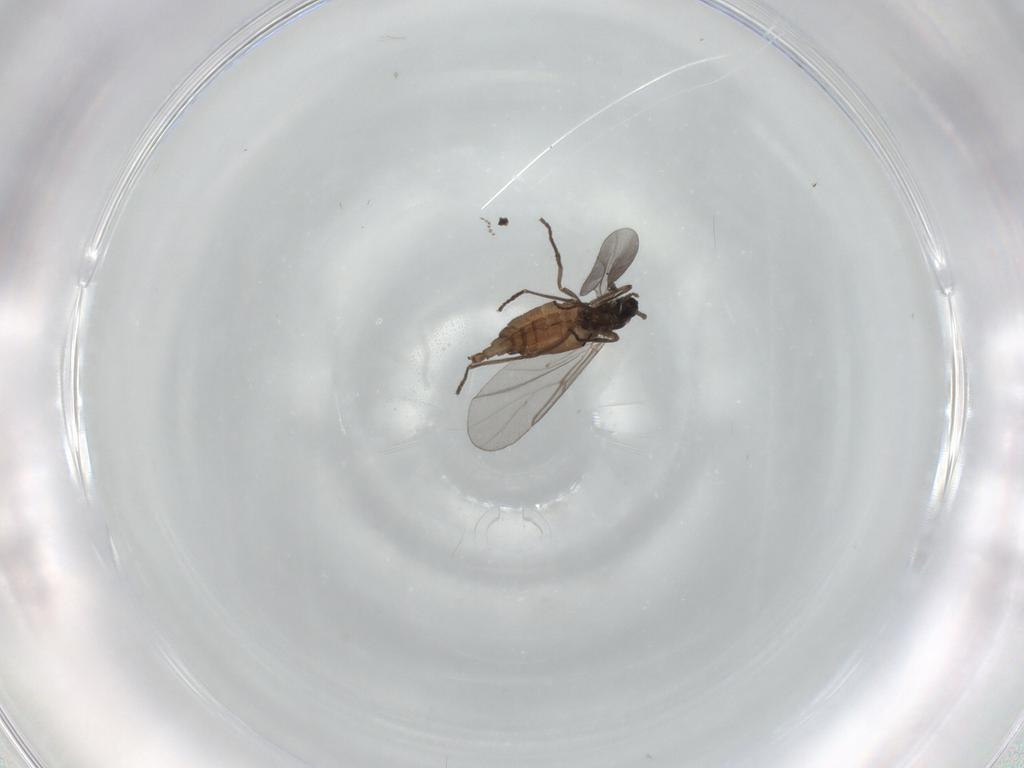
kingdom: Animalia
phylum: Arthropoda
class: Insecta
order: Diptera
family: Cecidomyiidae
